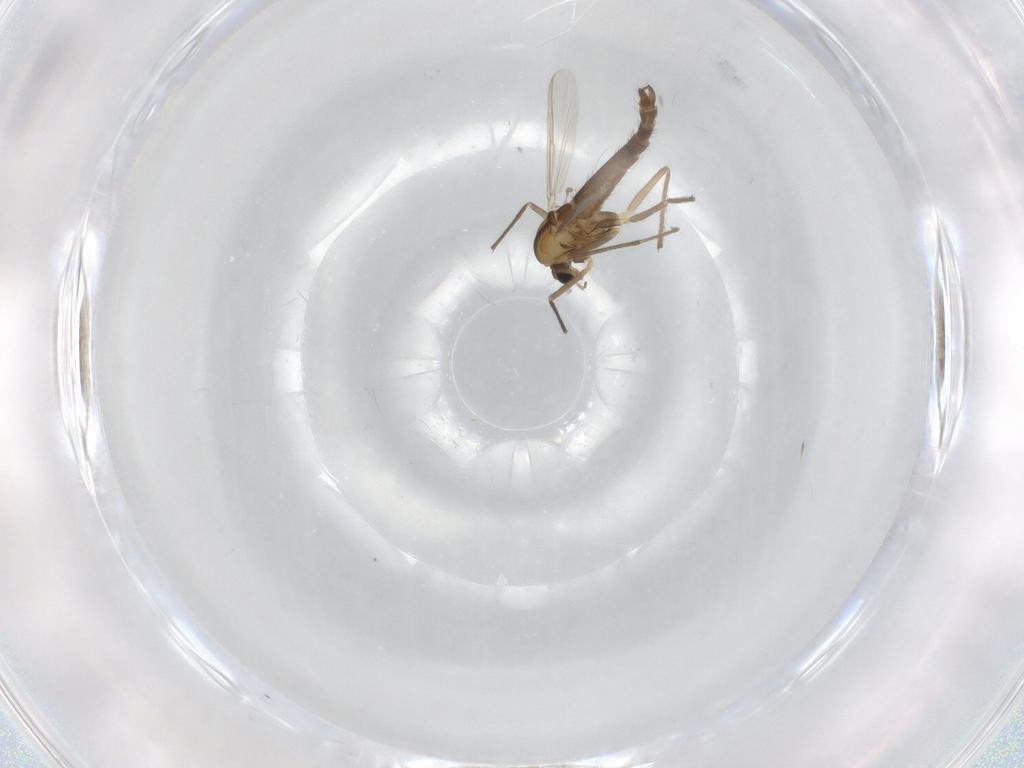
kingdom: Animalia
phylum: Arthropoda
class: Insecta
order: Diptera
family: Chironomidae
